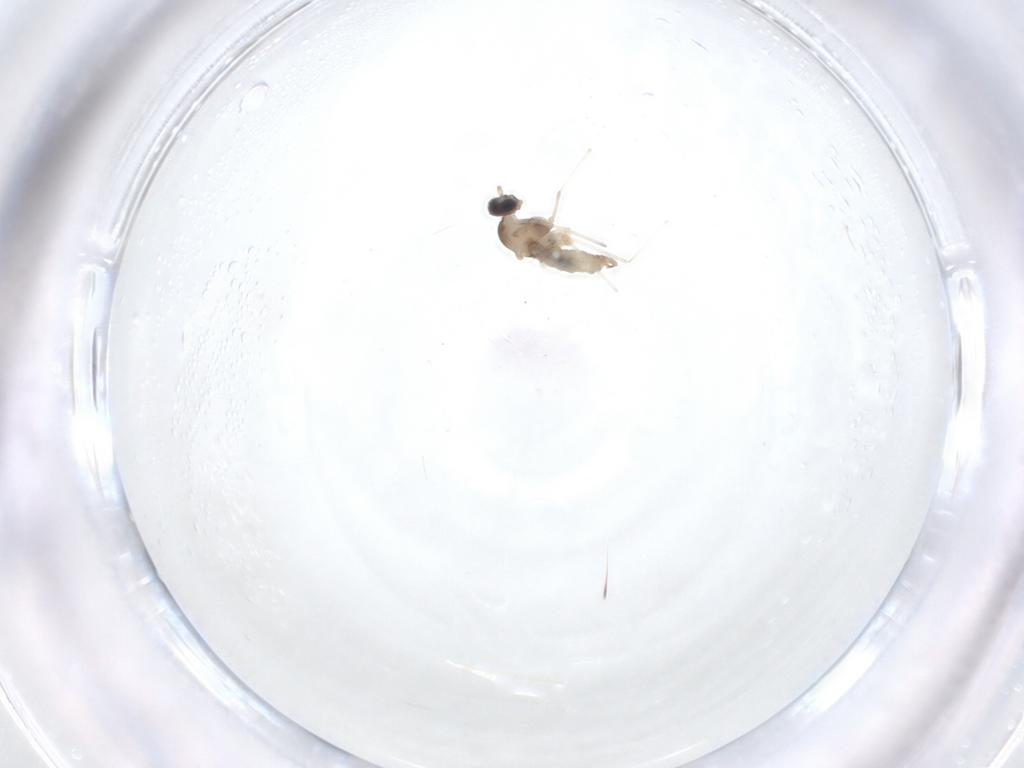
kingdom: Animalia
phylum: Arthropoda
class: Insecta
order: Diptera
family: Cecidomyiidae
